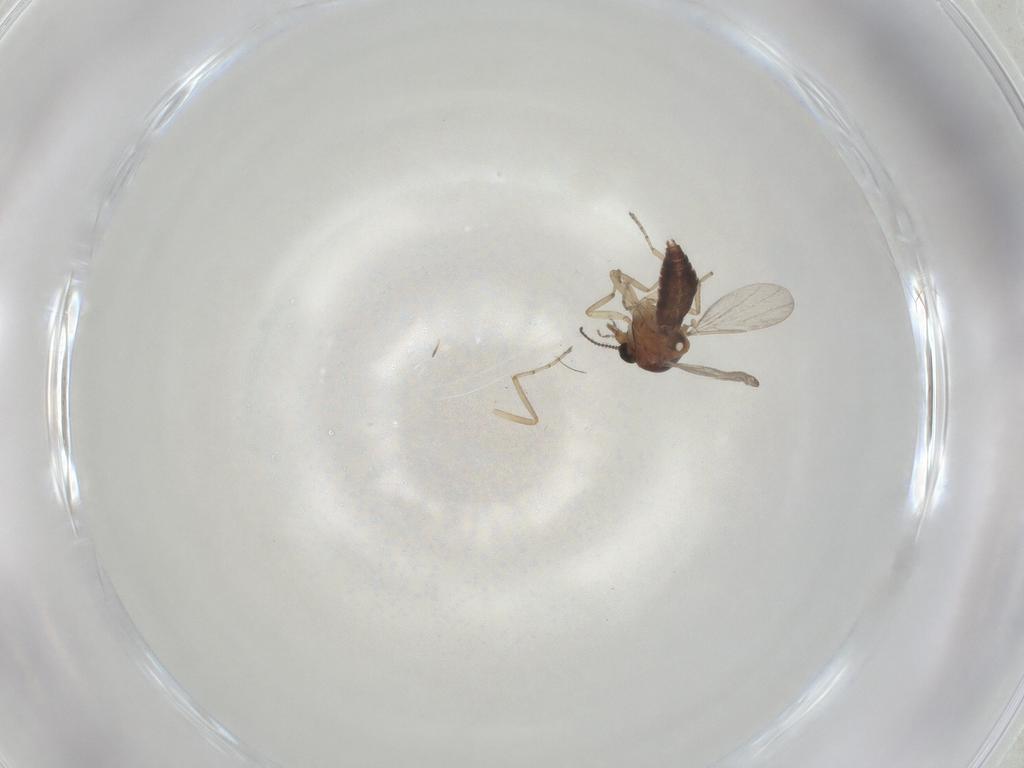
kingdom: Animalia
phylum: Arthropoda
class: Insecta
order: Diptera
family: Ceratopogonidae
